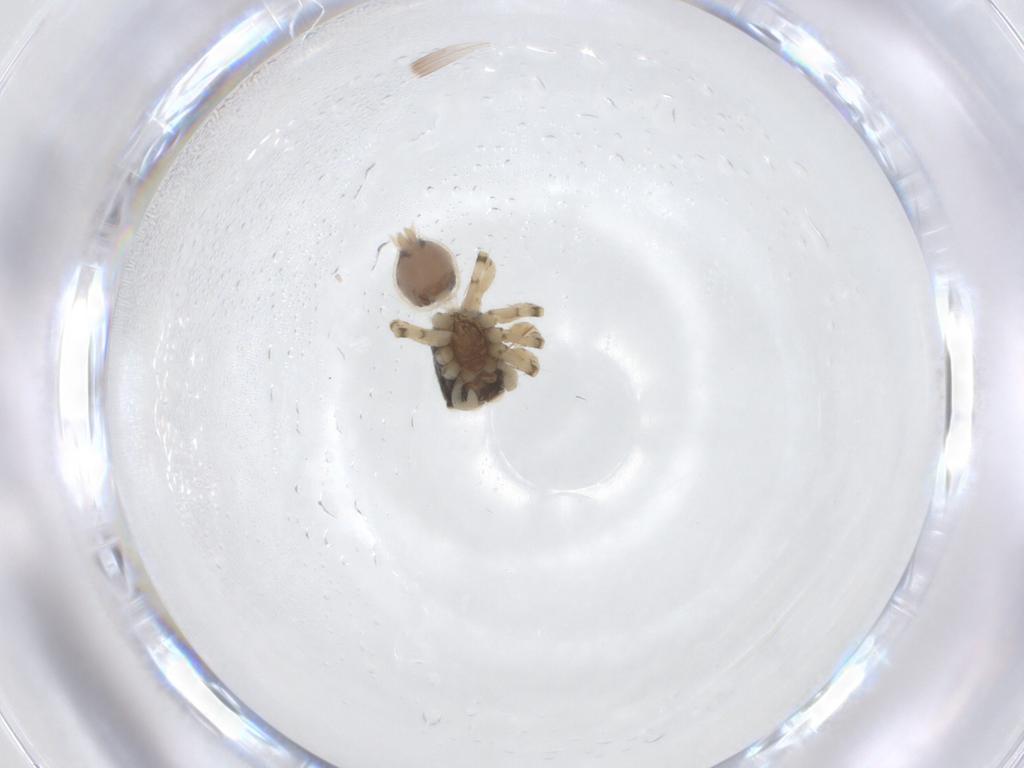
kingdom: Animalia
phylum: Arthropoda
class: Arachnida
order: Araneae
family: Salticidae
